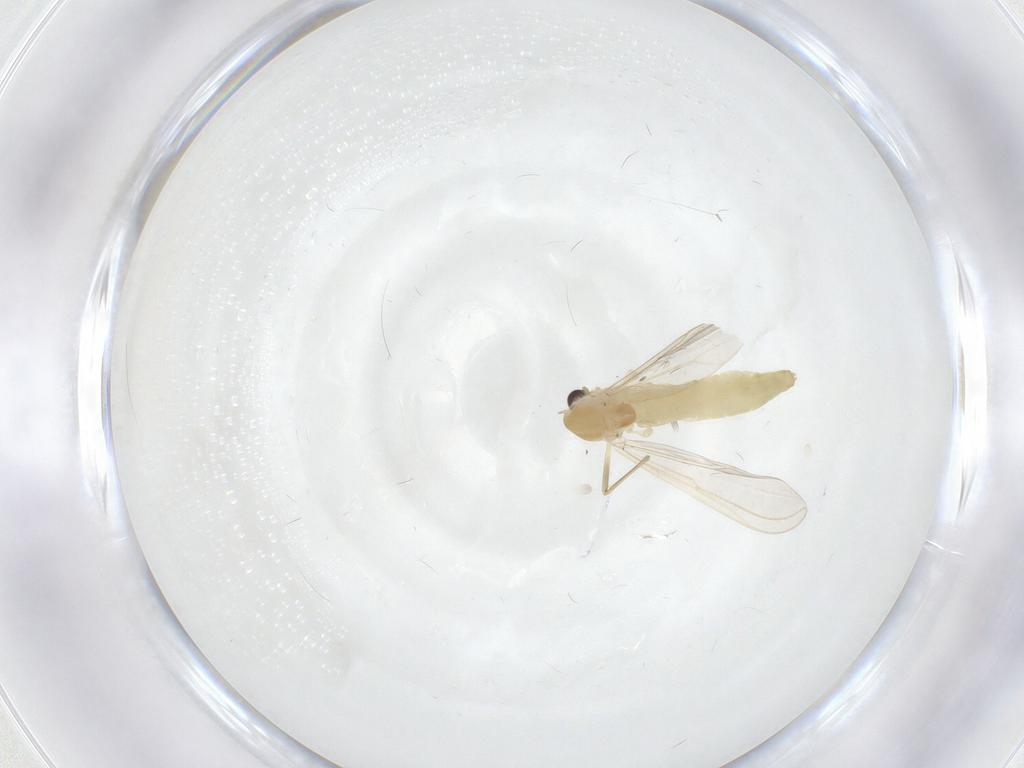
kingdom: Animalia
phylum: Arthropoda
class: Insecta
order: Diptera
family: Chironomidae
